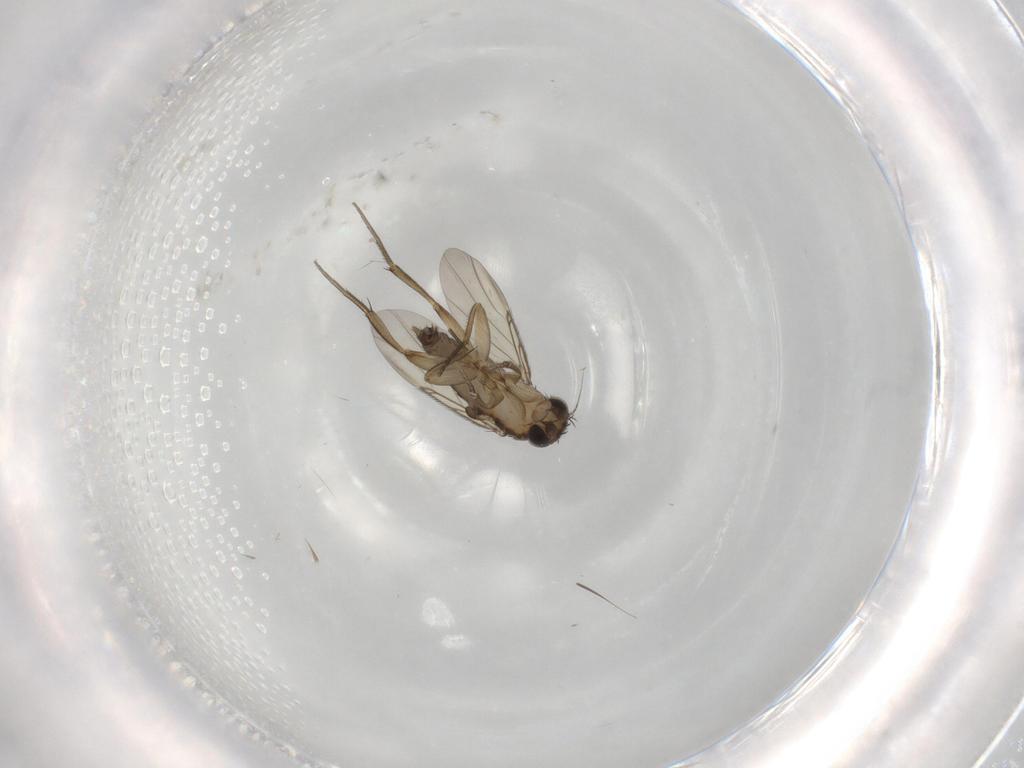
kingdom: Animalia
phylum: Arthropoda
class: Insecta
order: Diptera
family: Phoridae
